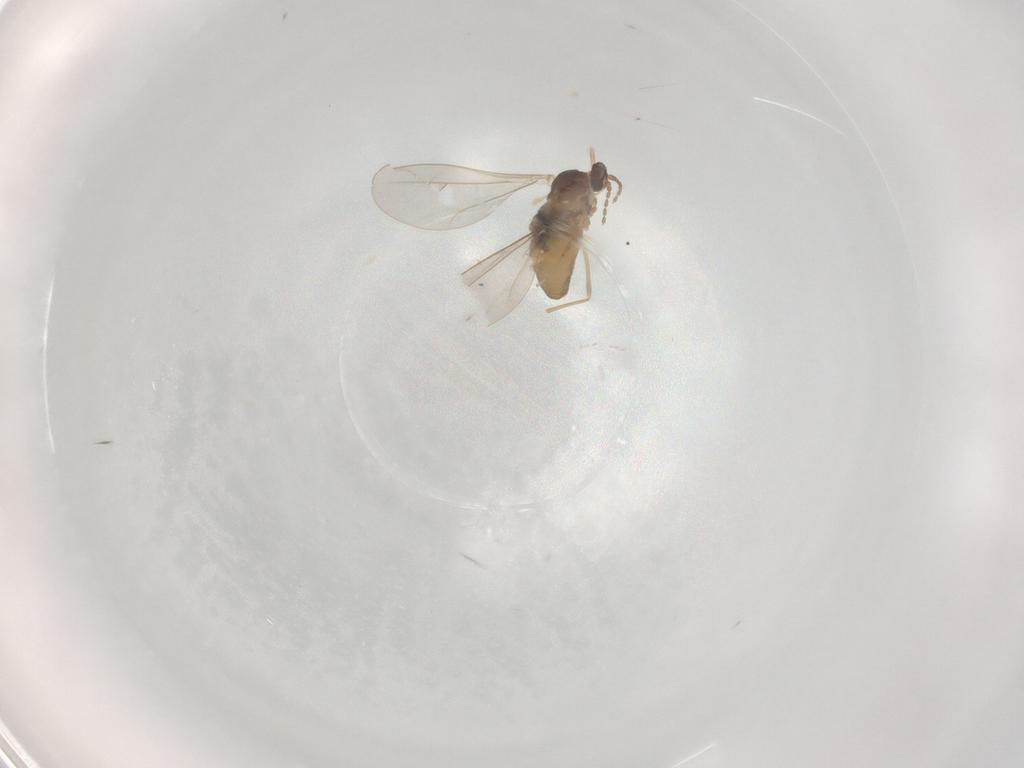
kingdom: Animalia
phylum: Arthropoda
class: Insecta
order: Diptera
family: Cecidomyiidae
